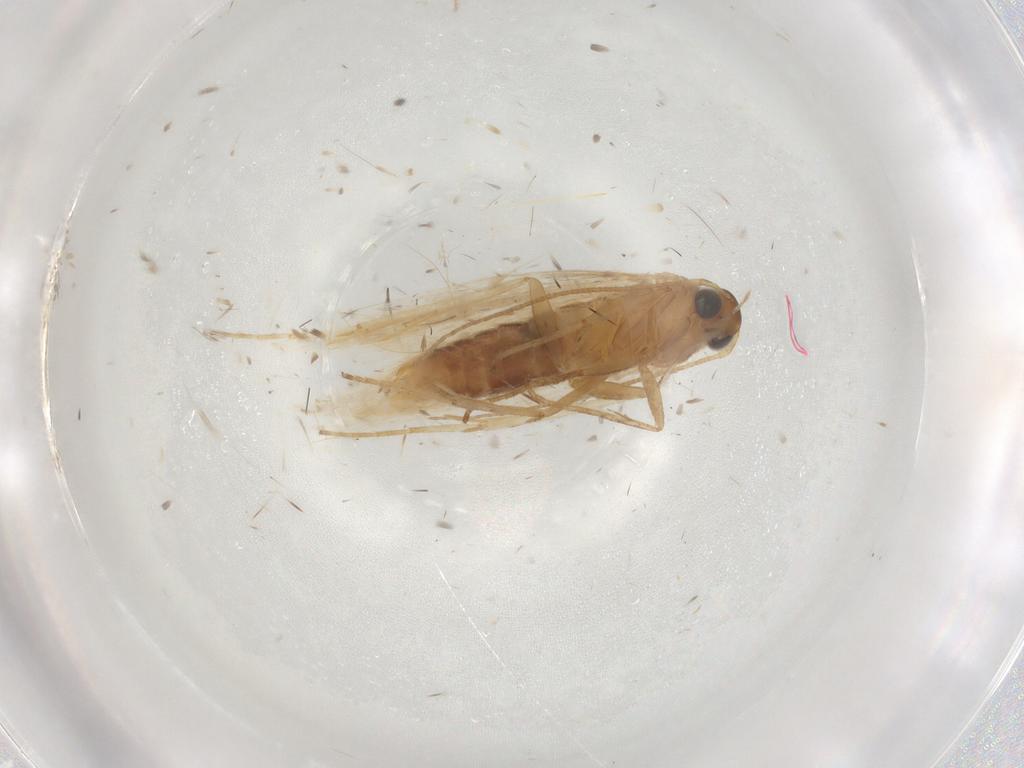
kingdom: Animalia
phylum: Arthropoda
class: Insecta
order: Lepidoptera
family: Gelechiidae
